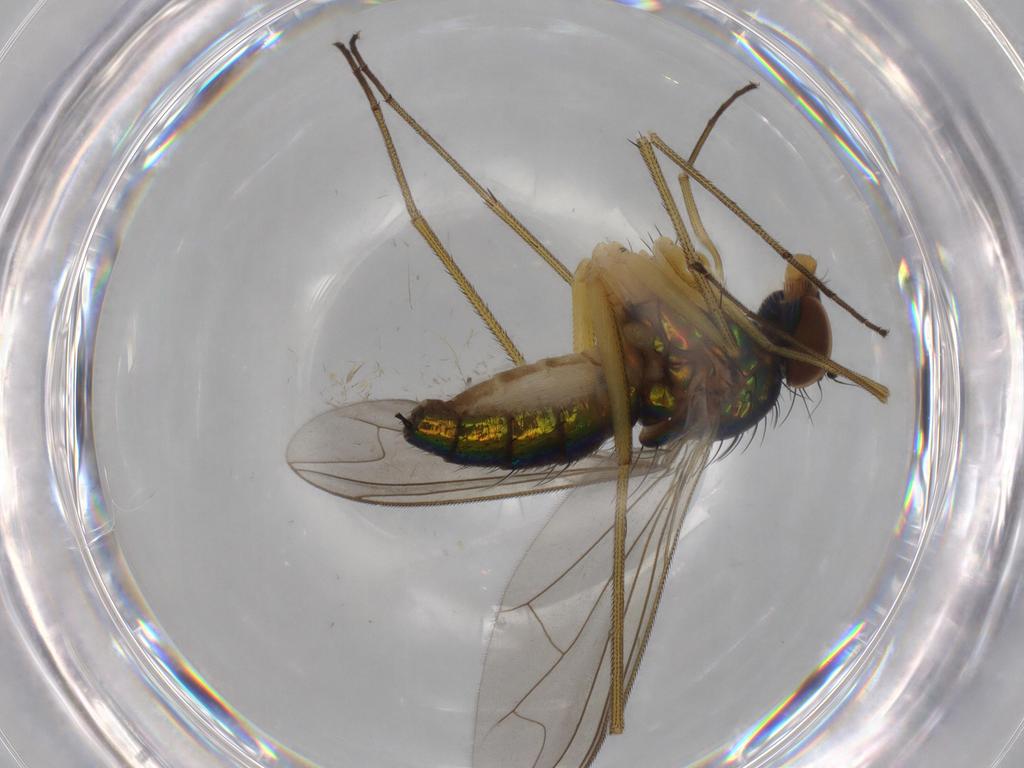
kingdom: Animalia
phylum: Arthropoda
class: Insecta
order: Diptera
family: Dolichopodidae
